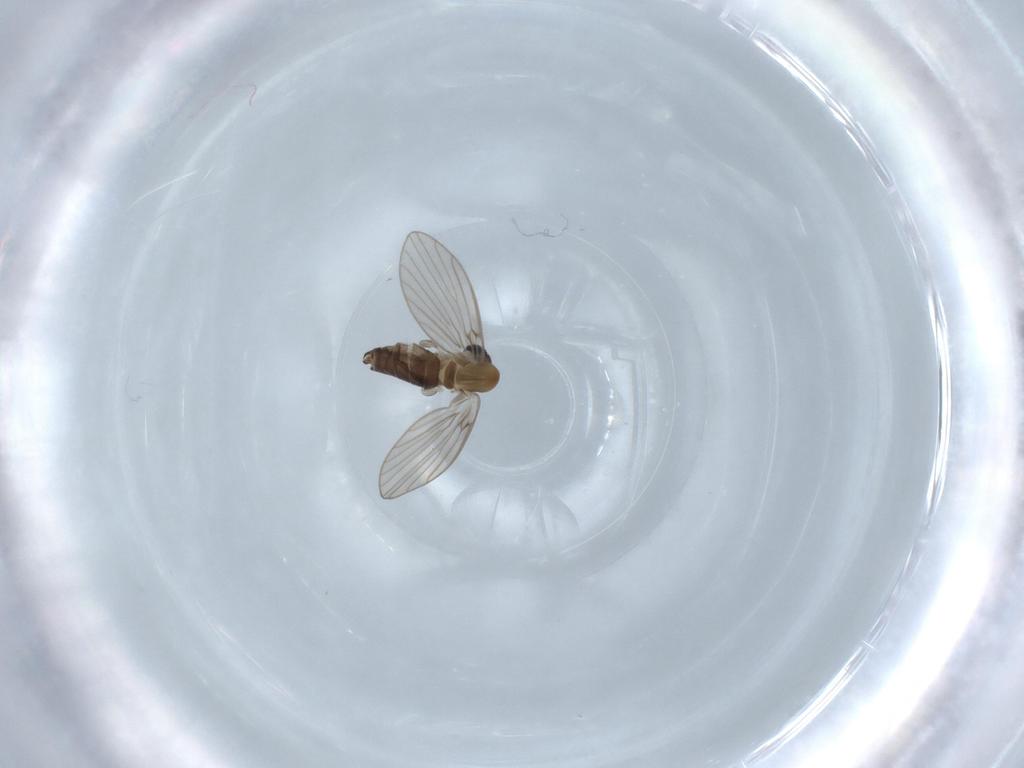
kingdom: Animalia
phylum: Arthropoda
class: Insecta
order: Diptera
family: Psychodidae
